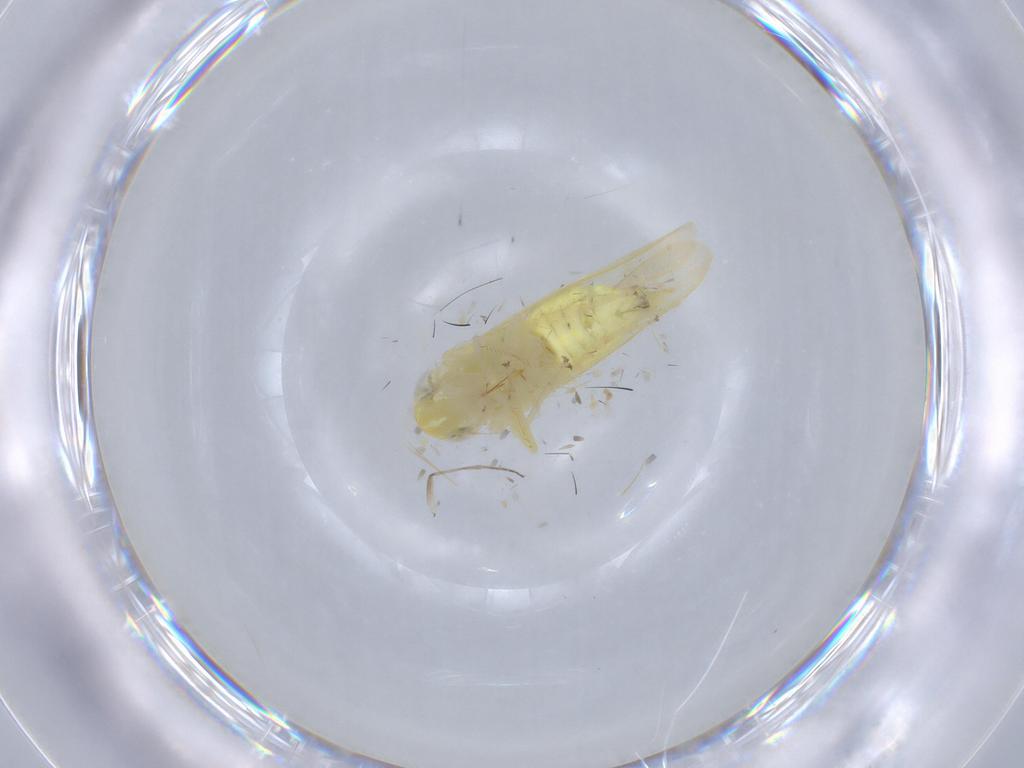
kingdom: Animalia
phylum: Arthropoda
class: Insecta
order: Hemiptera
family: Cicadellidae
